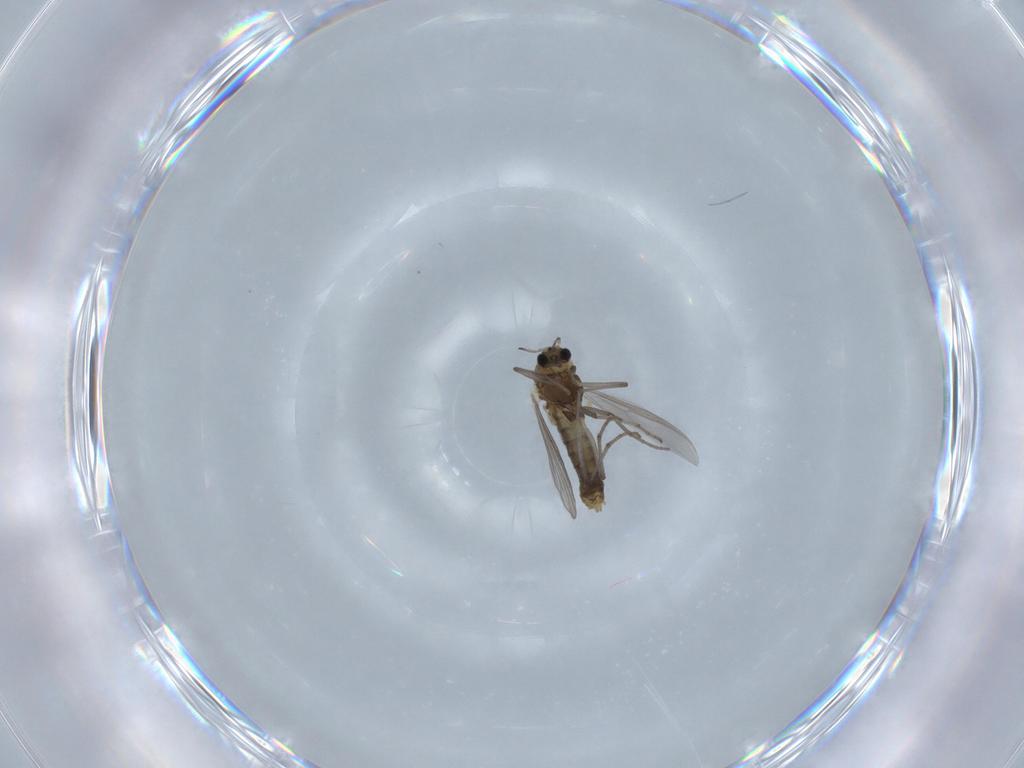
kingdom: Animalia
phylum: Arthropoda
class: Insecta
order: Diptera
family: Chironomidae
